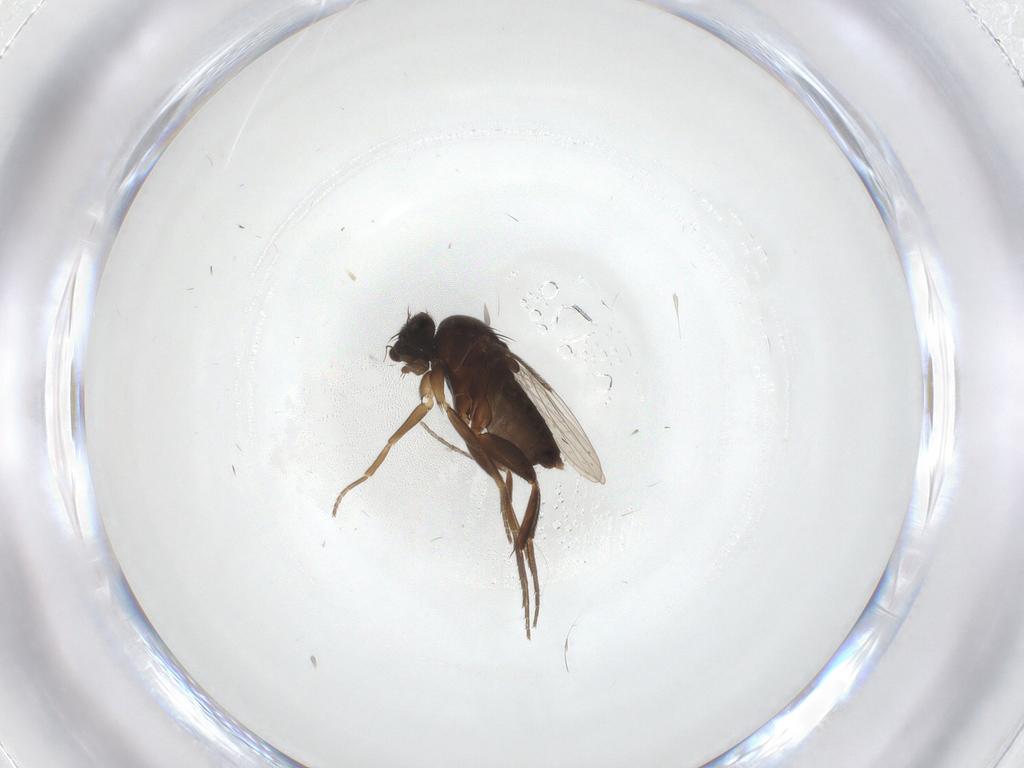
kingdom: Animalia
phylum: Arthropoda
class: Insecta
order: Diptera
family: Phoridae
